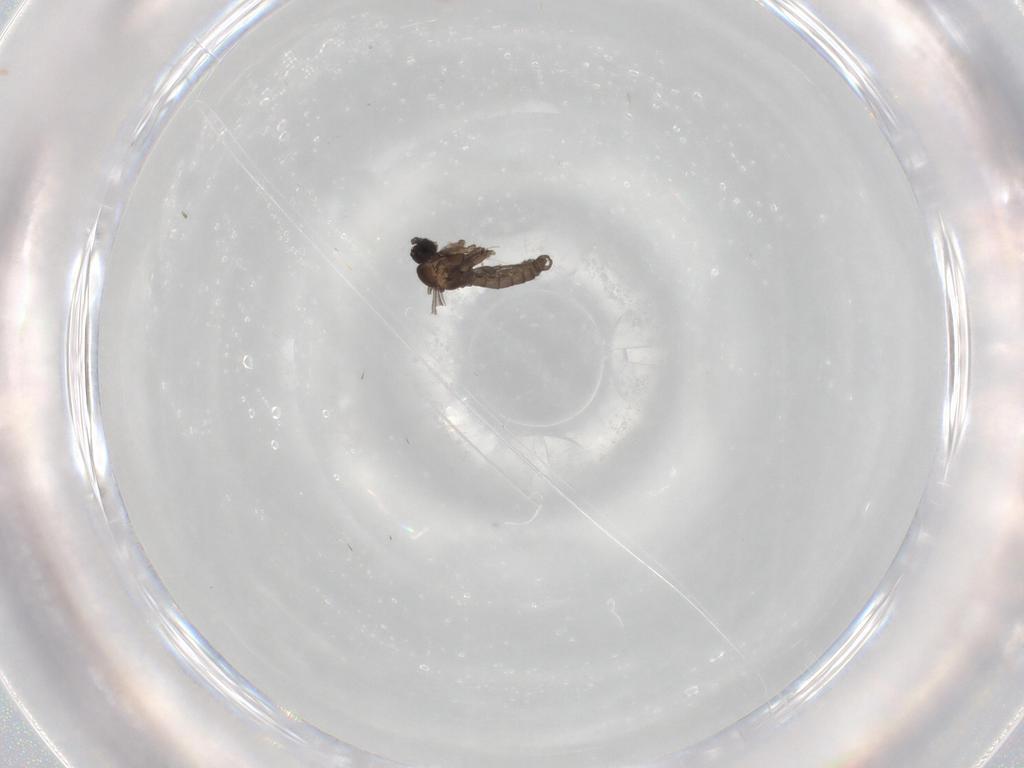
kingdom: Animalia
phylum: Arthropoda
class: Insecta
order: Diptera
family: Sciaridae
